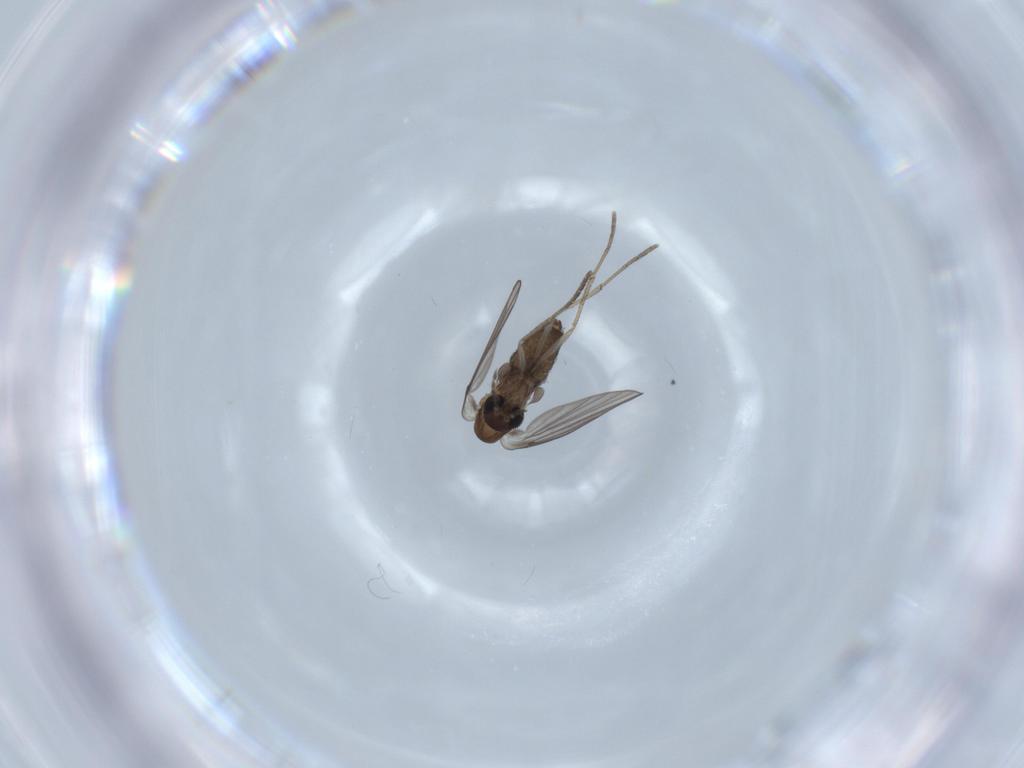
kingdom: Animalia
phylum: Arthropoda
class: Insecta
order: Diptera
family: Psychodidae
